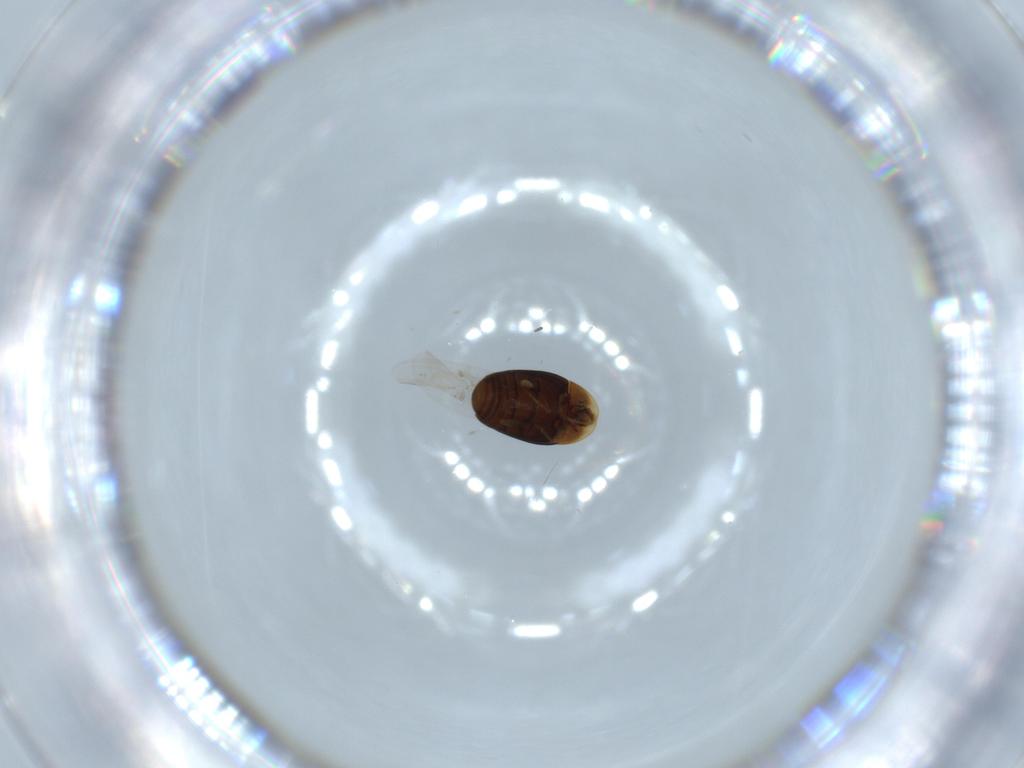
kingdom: Animalia
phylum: Arthropoda
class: Insecta
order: Coleoptera
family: Corylophidae
